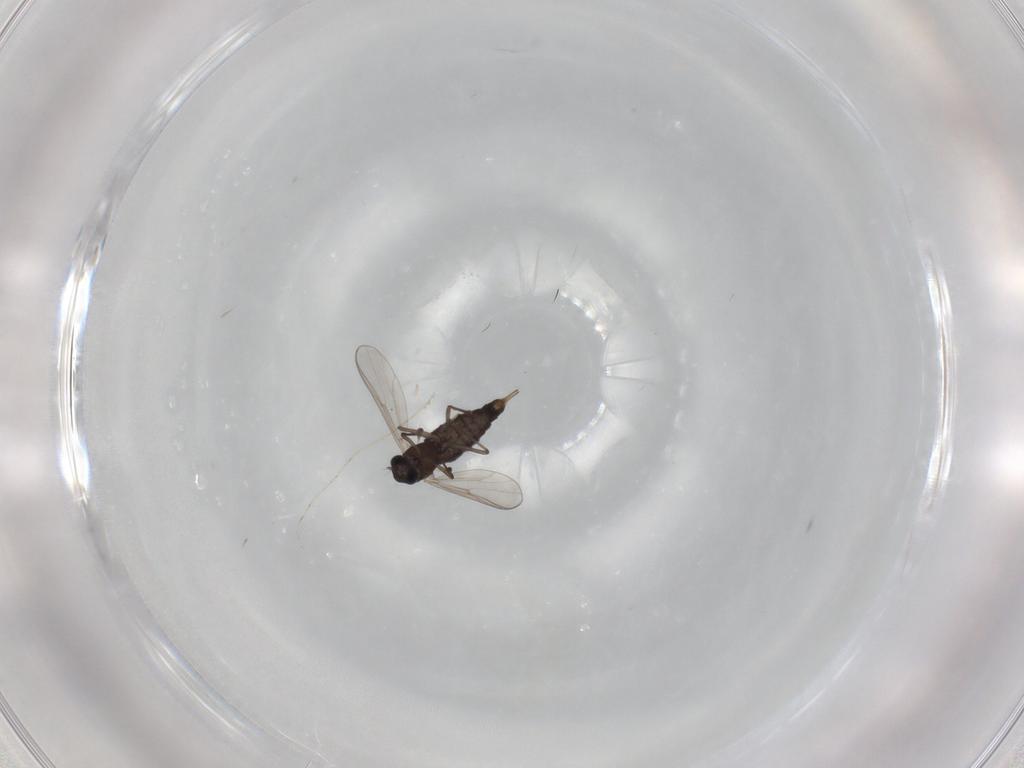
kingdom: Animalia
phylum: Arthropoda
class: Insecta
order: Diptera
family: Chironomidae
